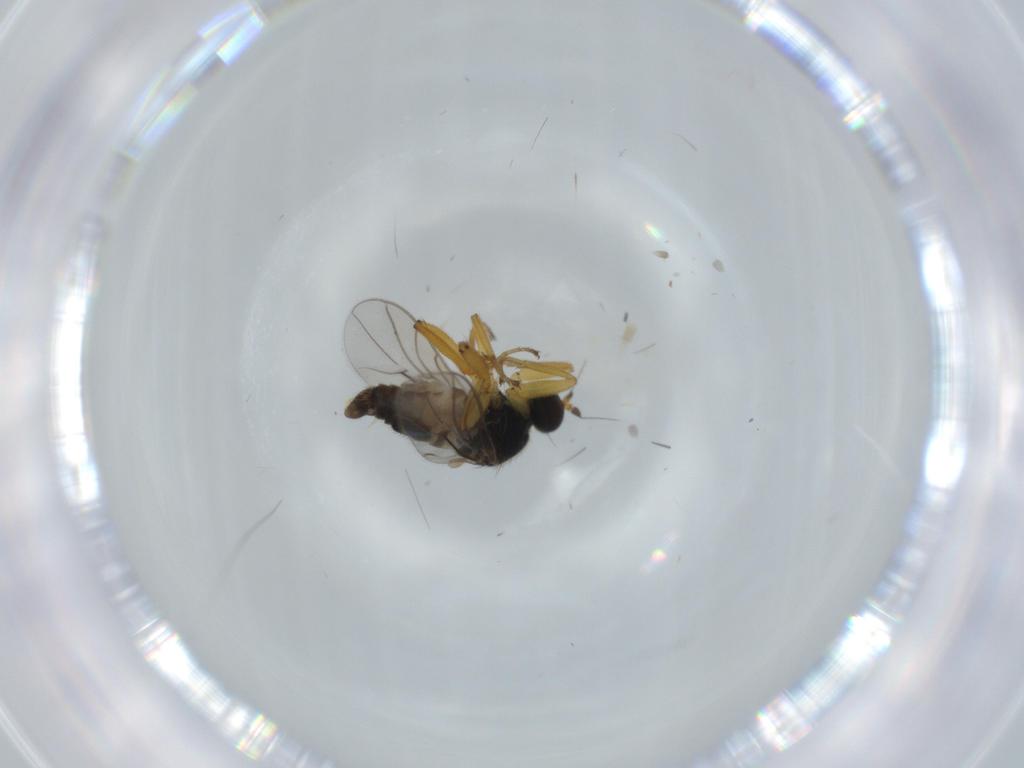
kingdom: Animalia
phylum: Arthropoda
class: Insecta
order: Diptera
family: Hybotidae
